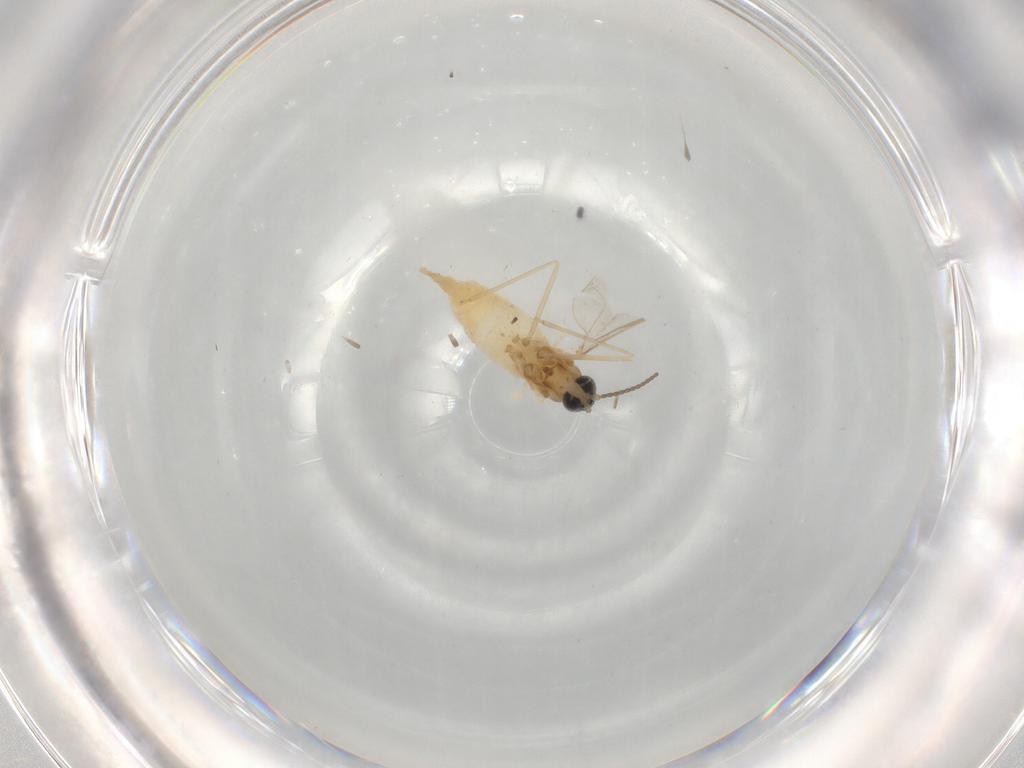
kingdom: Animalia
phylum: Arthropoda
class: Insecta
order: Diptera
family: Cecidomyiidae
